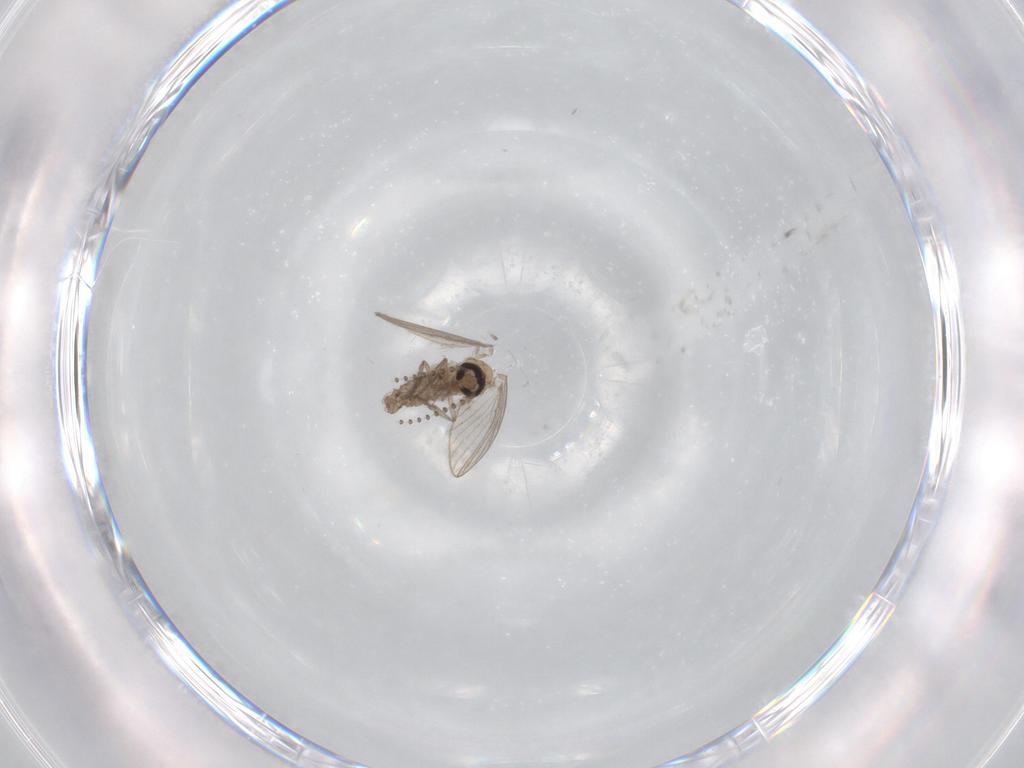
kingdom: Animalia
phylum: Arthropoda
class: Insecta
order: Diptera
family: Psychodidae
